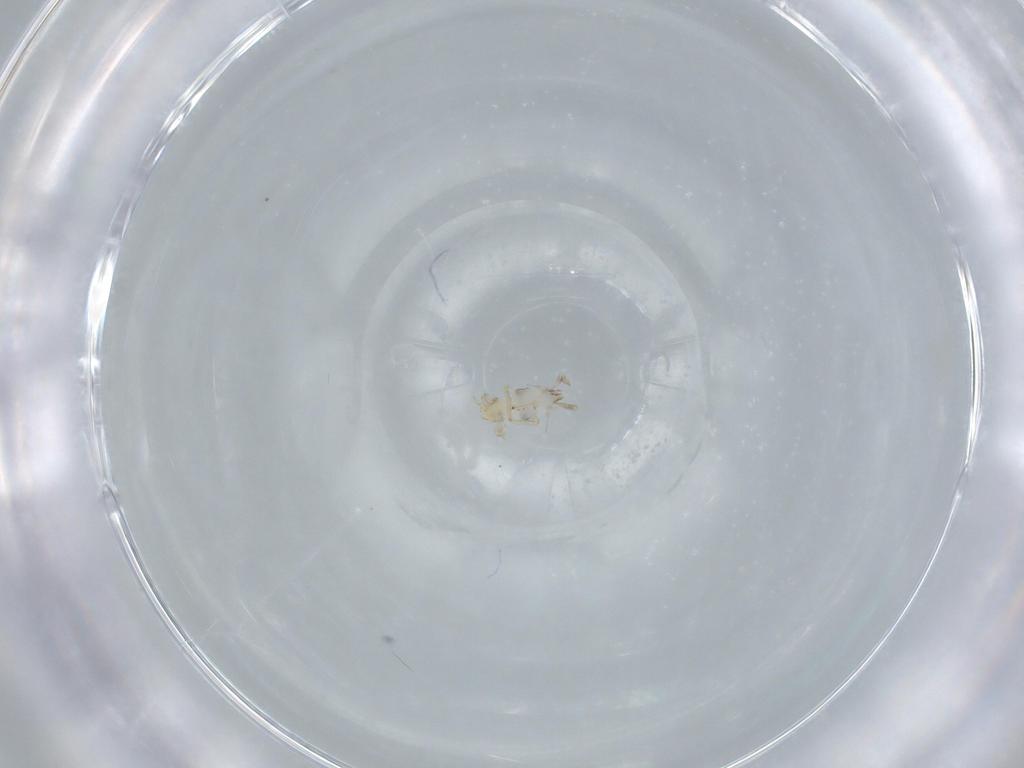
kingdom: Animalia
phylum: Arthropoda
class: Insecta
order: Hemiptera
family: Delphacidae
